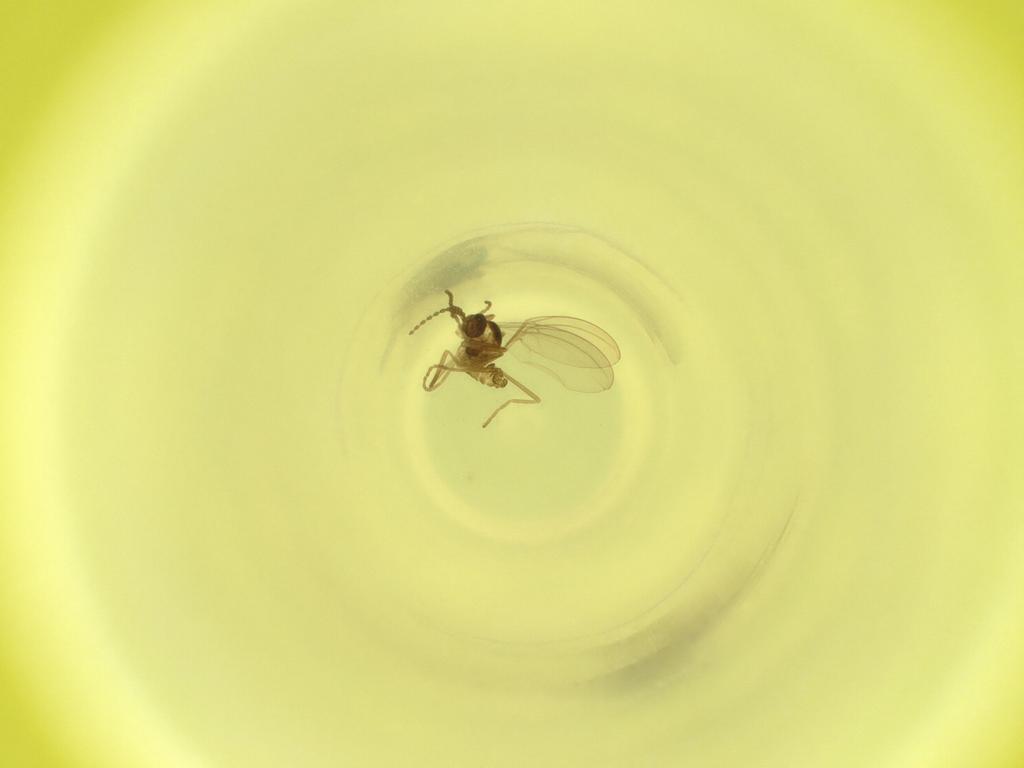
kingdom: Animalia
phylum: Arthropoda
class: Insecta
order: Diptera
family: Cecidomyiidae
